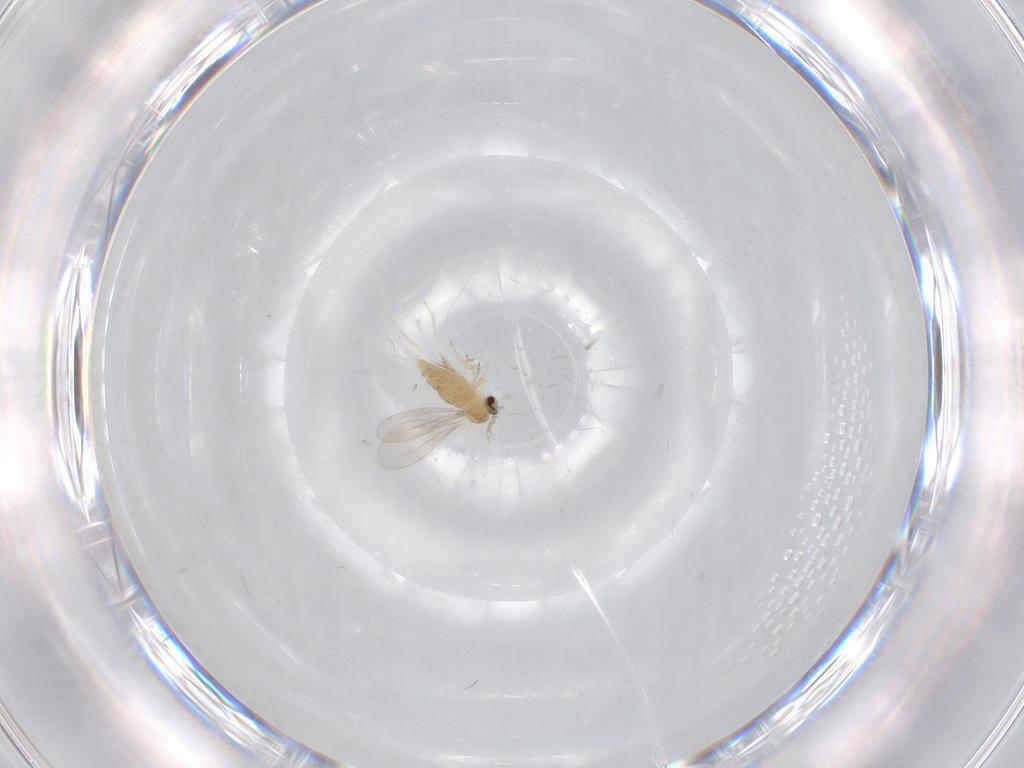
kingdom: Animalia
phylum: Arthropoda
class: Insecta
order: Diptera
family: Cecidomyiidae
